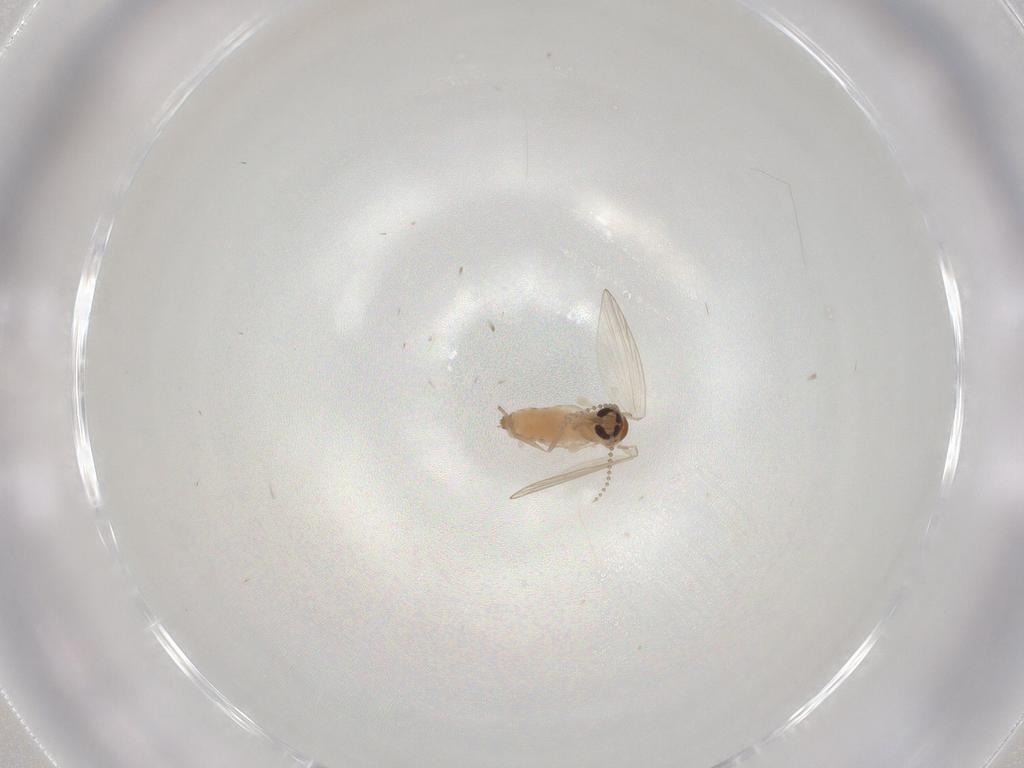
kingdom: Animalia
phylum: Arthropoda
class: Insecta
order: Diptera
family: Psychodidae
